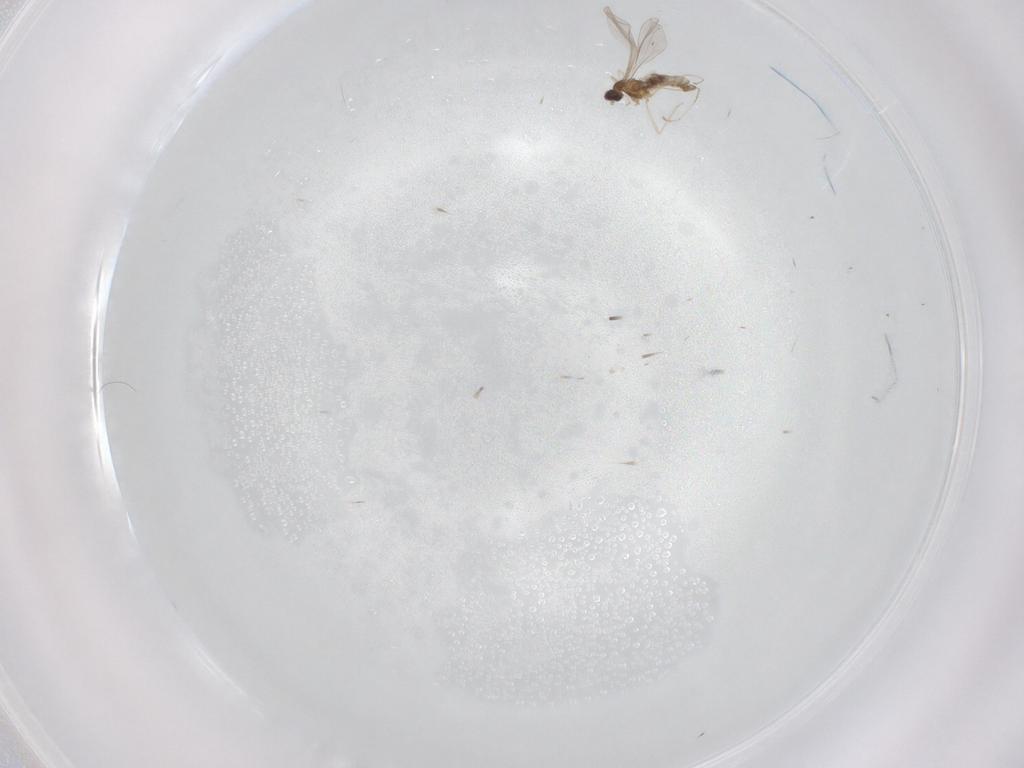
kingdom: Animalia
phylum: Arthropoda
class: Insecta
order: Diptera
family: Cecidomyiidae
